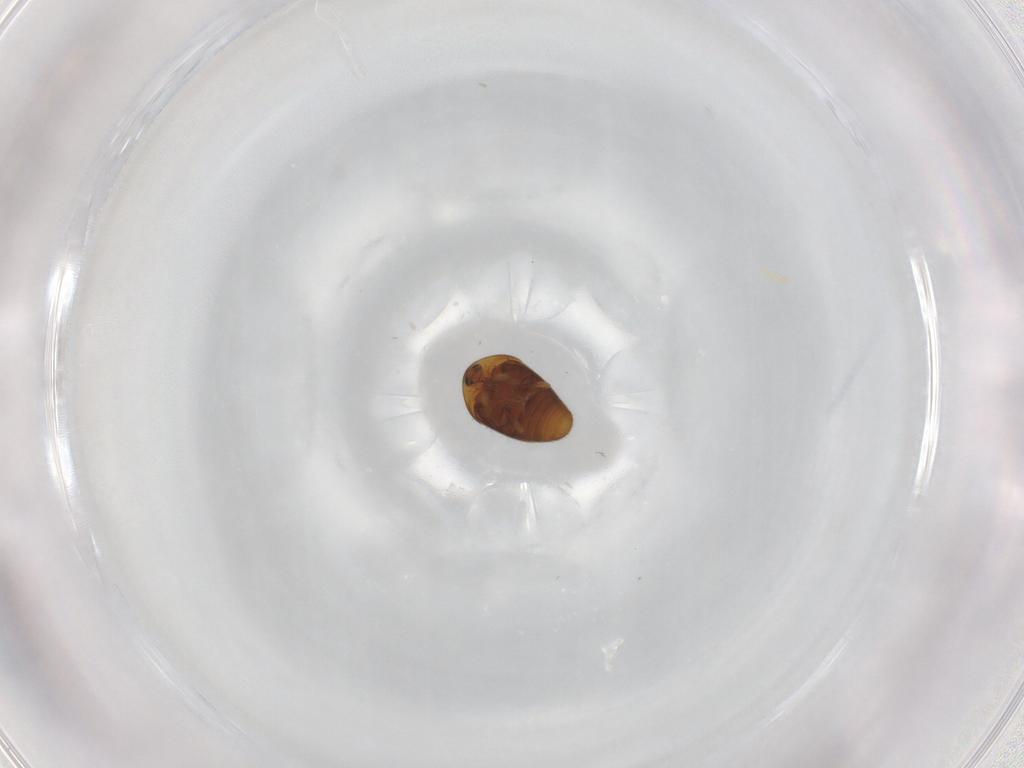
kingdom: Animalia
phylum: Arthropoda
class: Insecta
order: Coleoptera
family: Corylophidae
